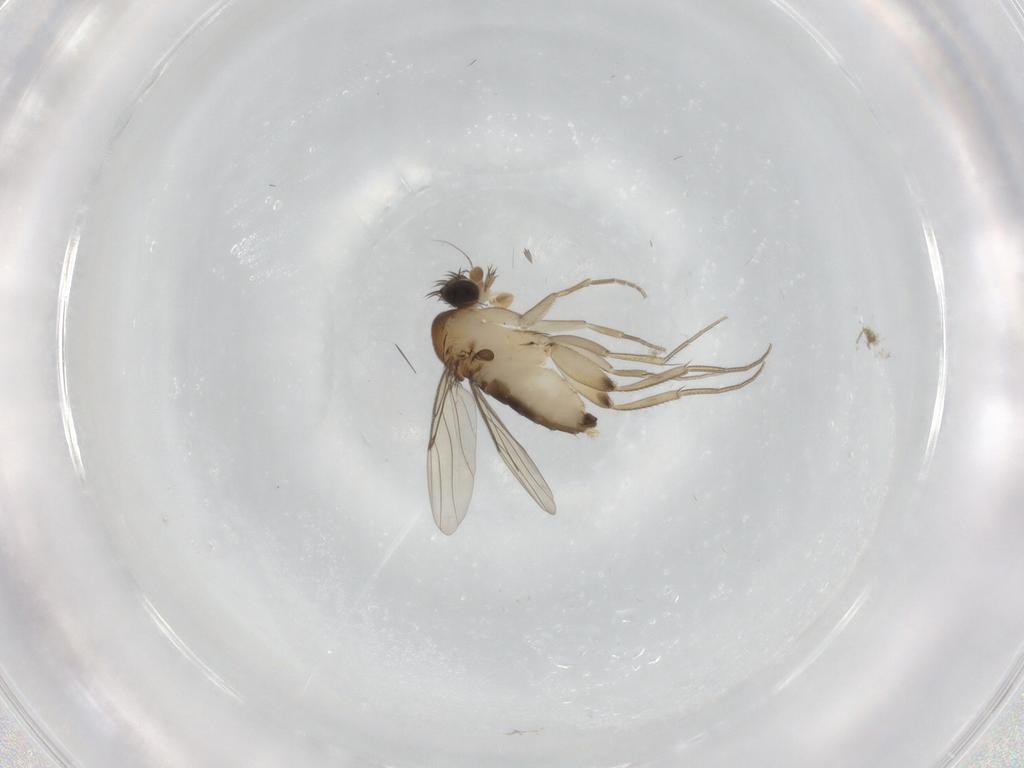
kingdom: Animalia
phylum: Arthropoda
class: Insecta
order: Diptera
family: Phoridae
